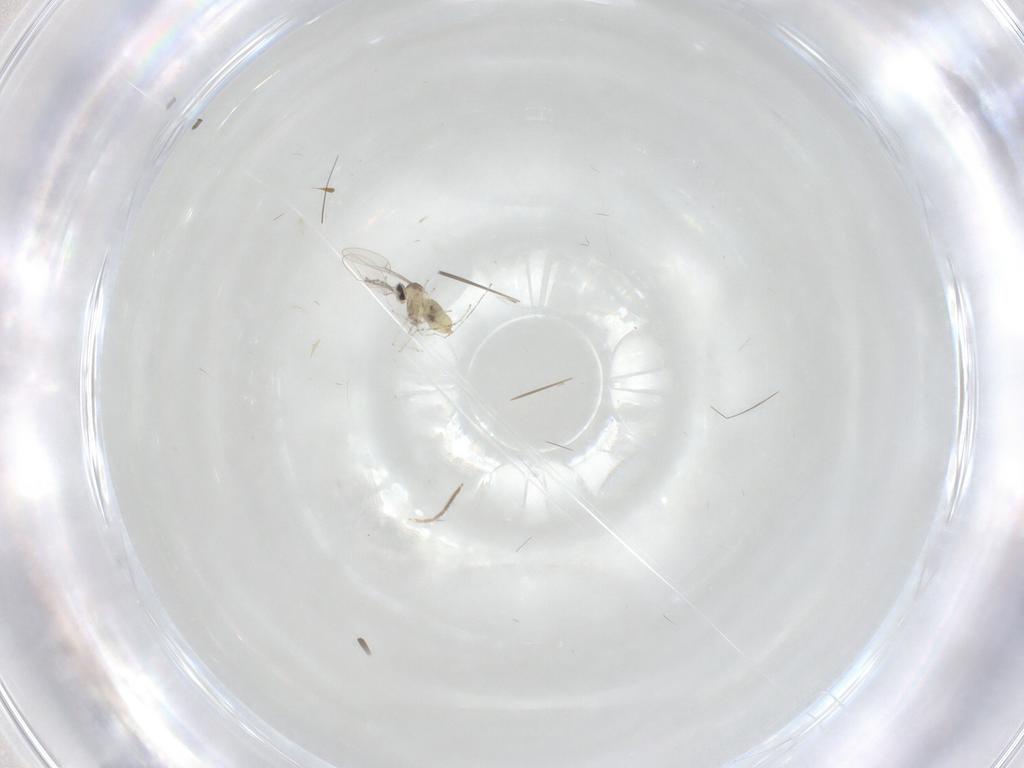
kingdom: Animalia
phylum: Arthropoda
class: Insecta
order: Diptera
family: Cecidomyiidae
